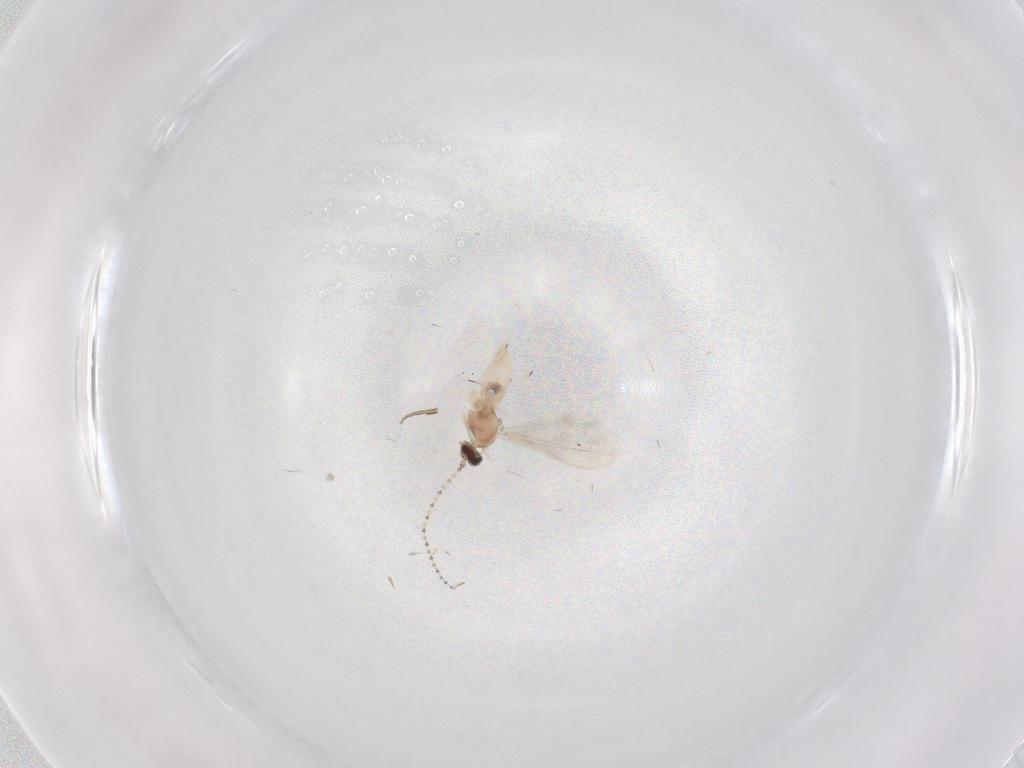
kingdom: Animalia
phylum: Arthropoda
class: Insecta
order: Diptera
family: Cecidomyiidae
